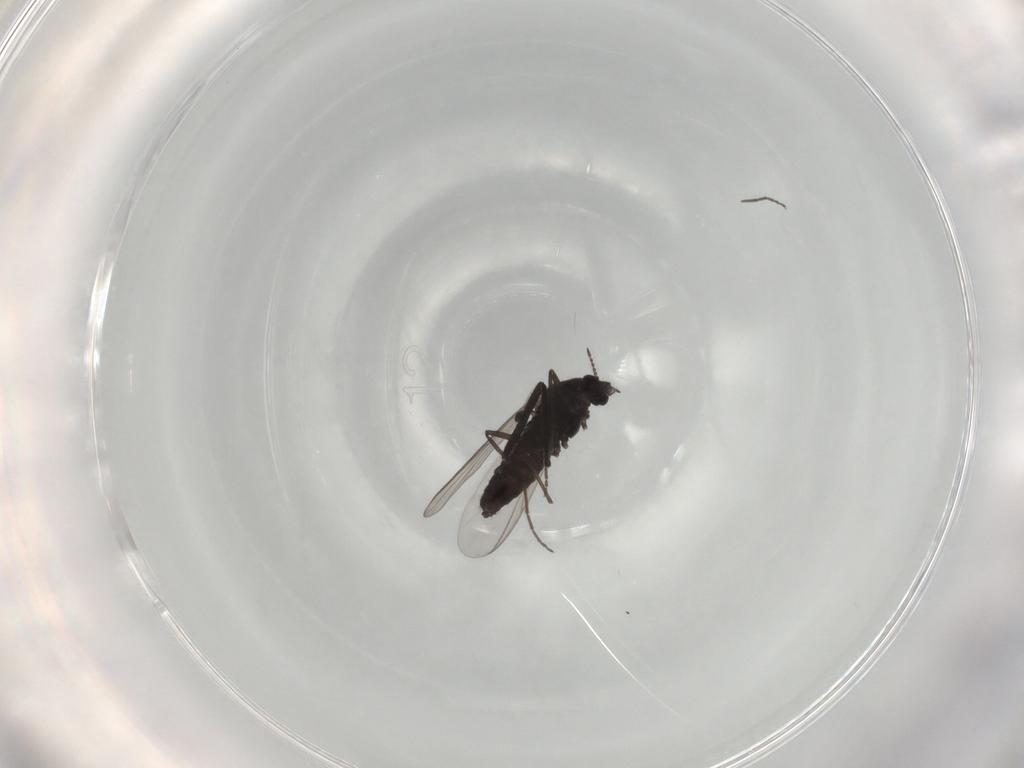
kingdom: Animalia
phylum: Arthropoda
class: Insecta
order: Diptera
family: Chironomidae
